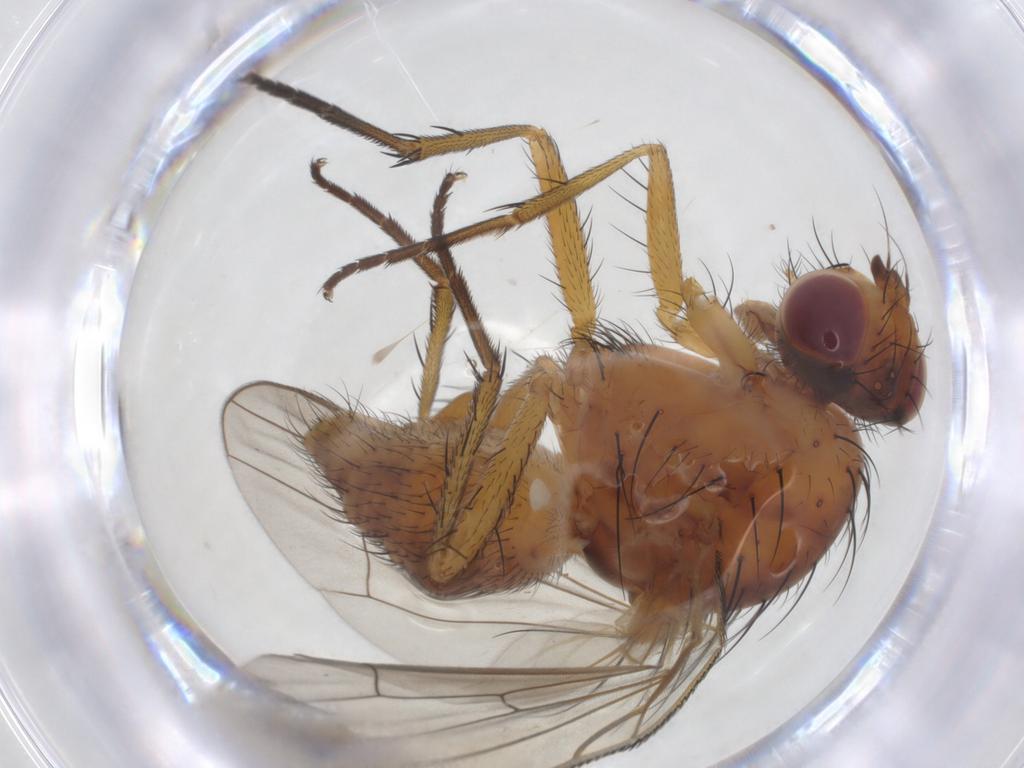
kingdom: Animalia
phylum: Arthropoda
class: Insecta
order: Diptera
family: Anthomyiidae
